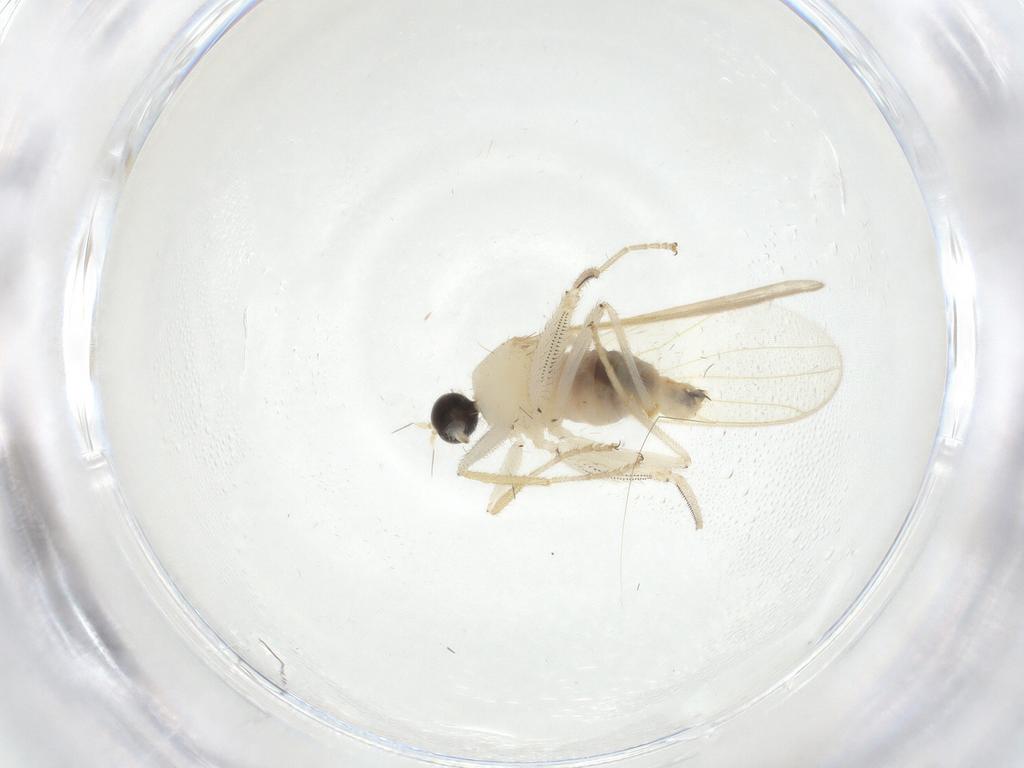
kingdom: Animalia
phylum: Arthropoda
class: Insecta
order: Diptera
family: Hybotidae
